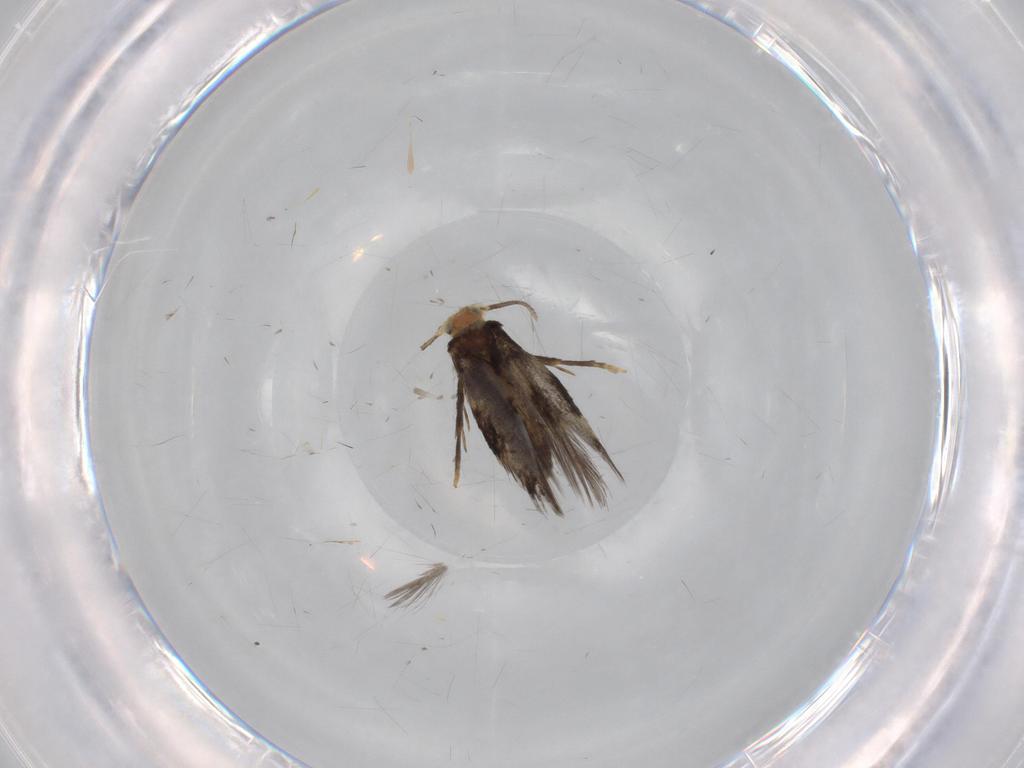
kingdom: Animalia
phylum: Arthropoda
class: Insecta
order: Lepidoptera
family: Nepticulidae
